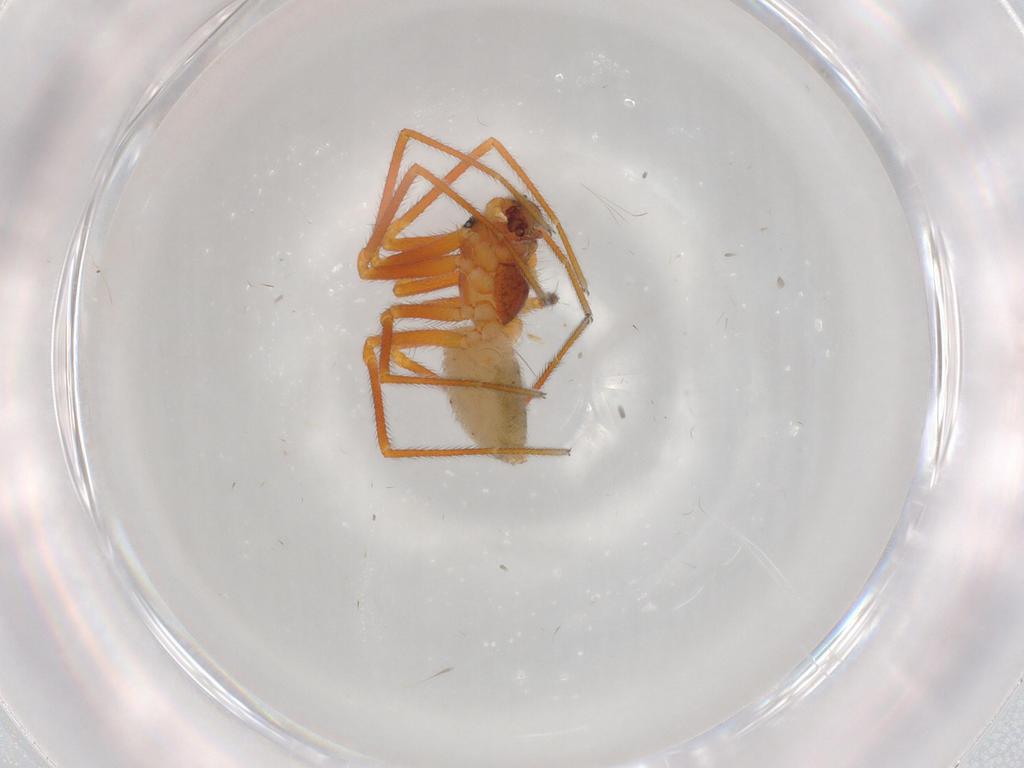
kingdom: Animalia
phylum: Arthropoda
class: Arachnida
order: Araneae
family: Linyphiidae
